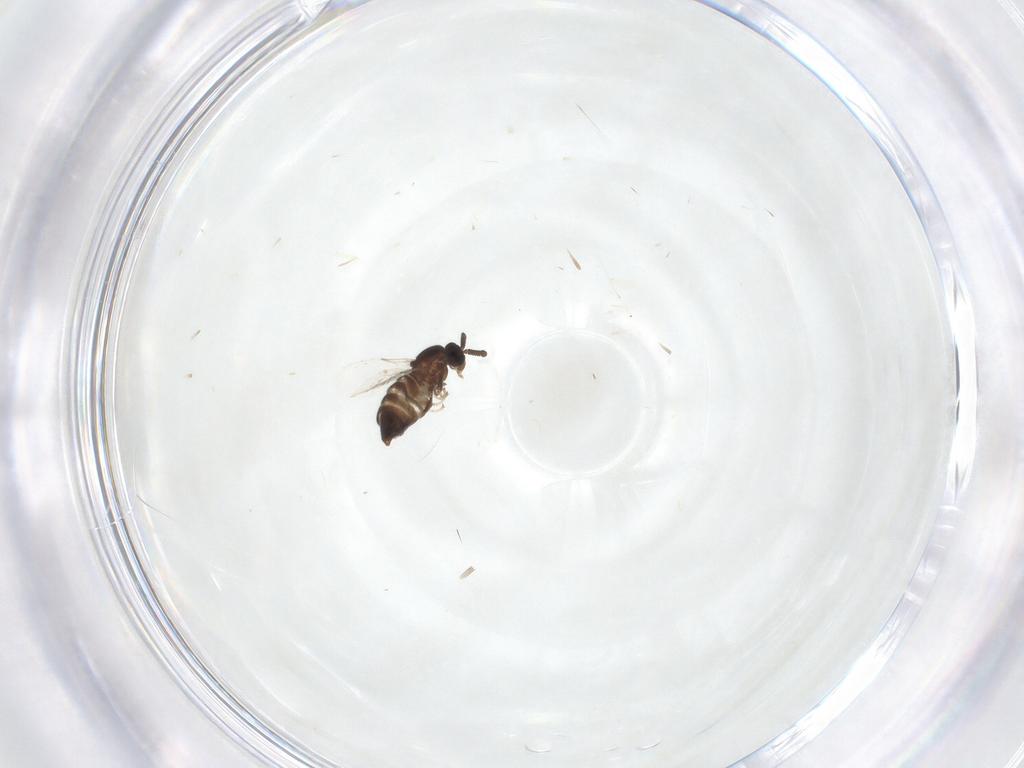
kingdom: Animalia
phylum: Arthropoda
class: Insecta
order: Diptera
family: Scatopsidae
